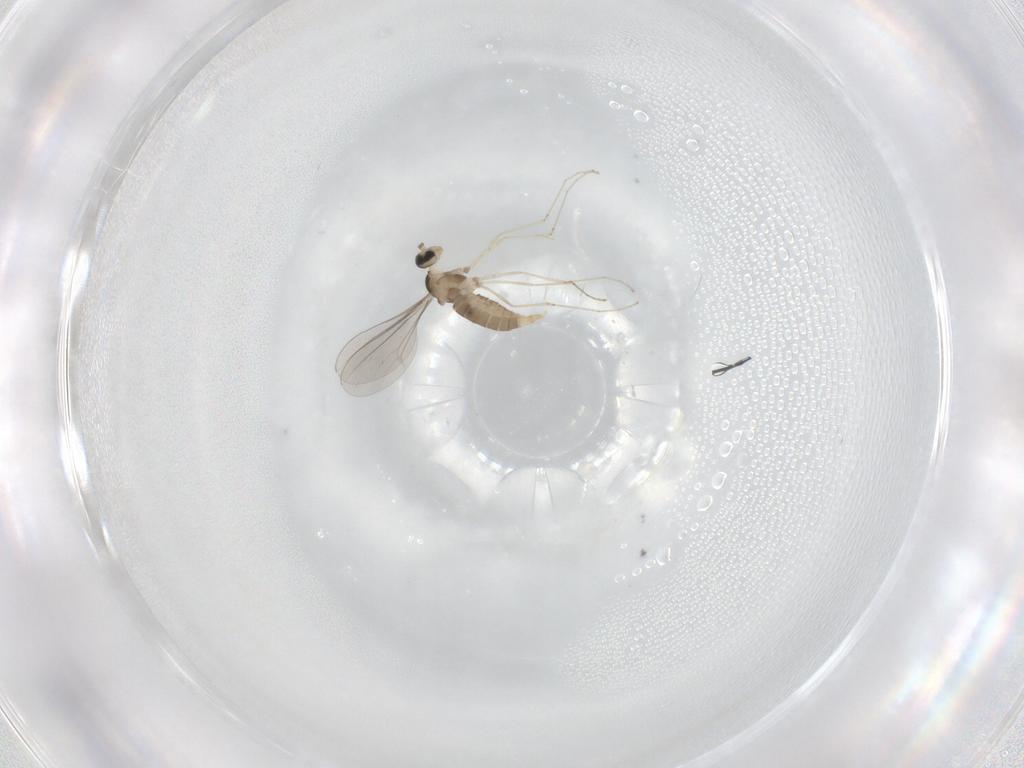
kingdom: Animalia
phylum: Arthropoda
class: Insecta
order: Diptera
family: Cecidomyiidae
